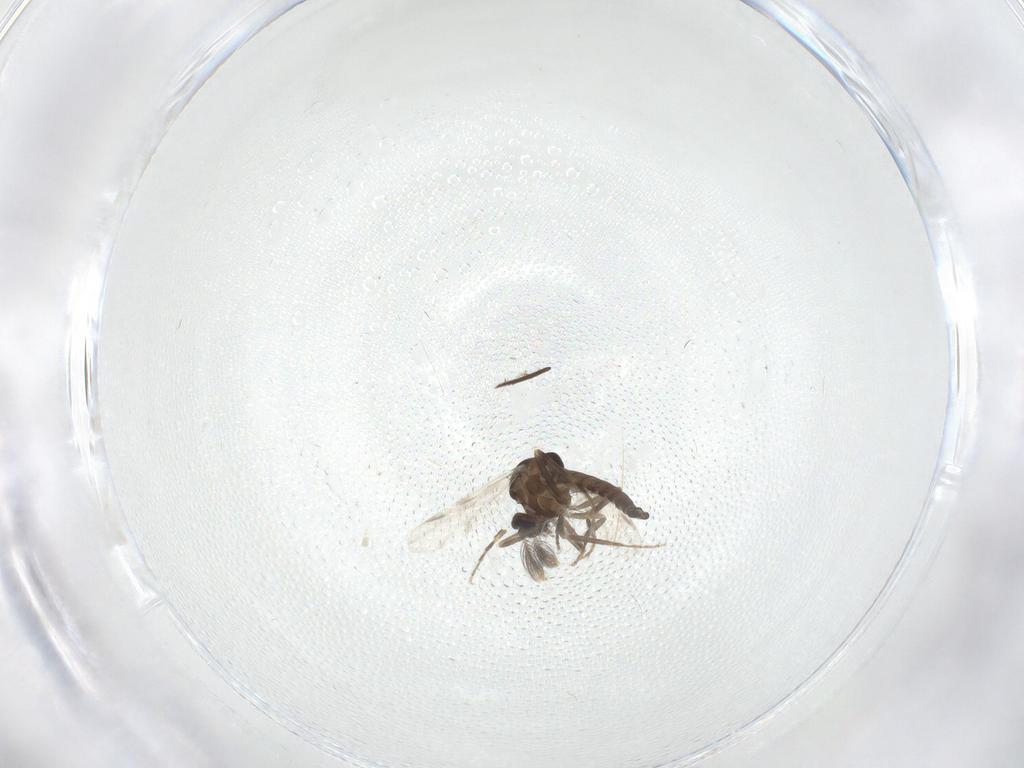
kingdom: Animalia
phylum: Arthropoda
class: Insecta
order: Diptera
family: Ceratopogonidae
